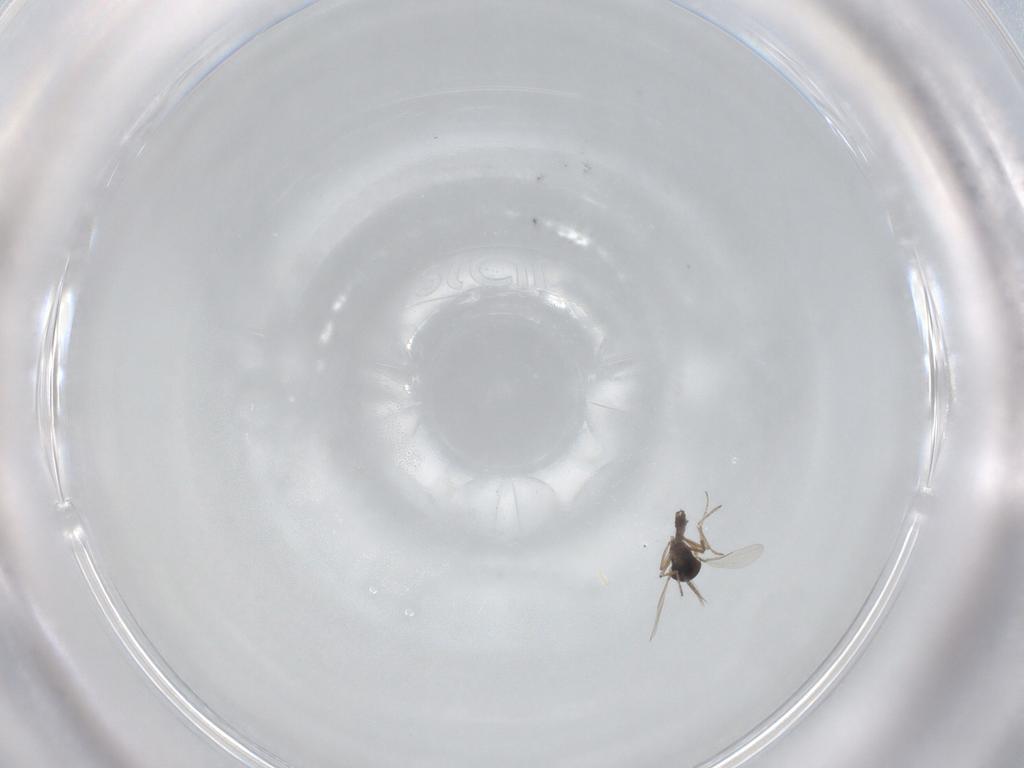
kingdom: Animalia
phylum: Arthropoda
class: Insecta
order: Diptera
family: Ceratopogonidae
